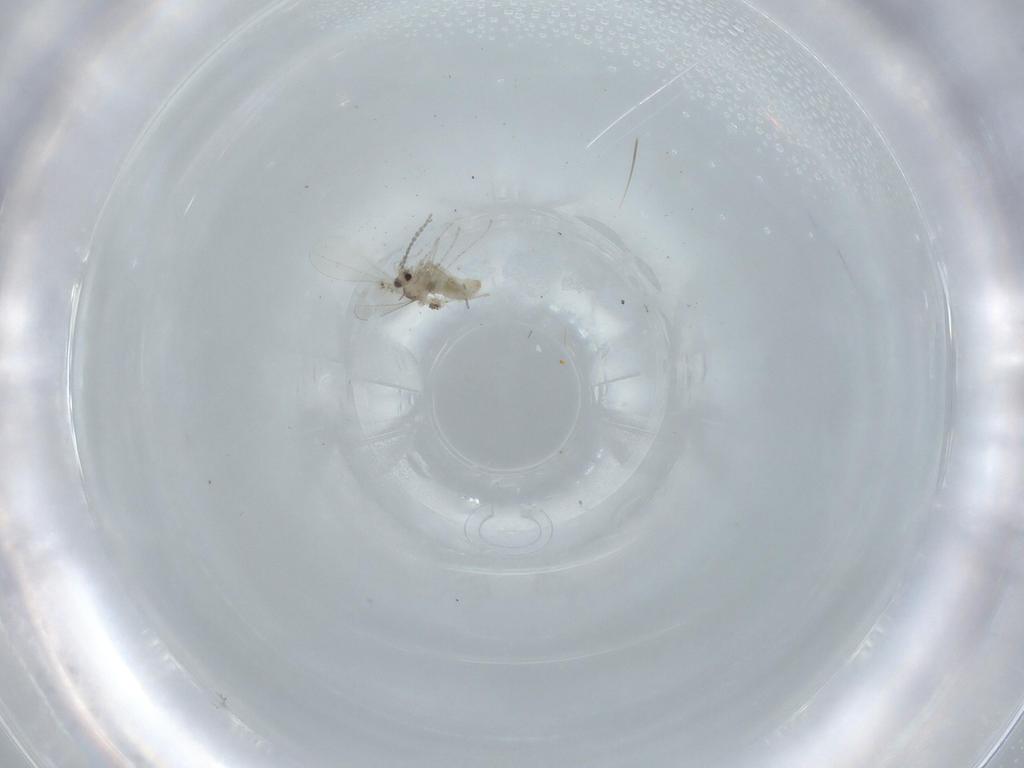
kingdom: Animalia
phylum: Arthropoda
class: Insecta
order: Diptera
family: Sciaridae
